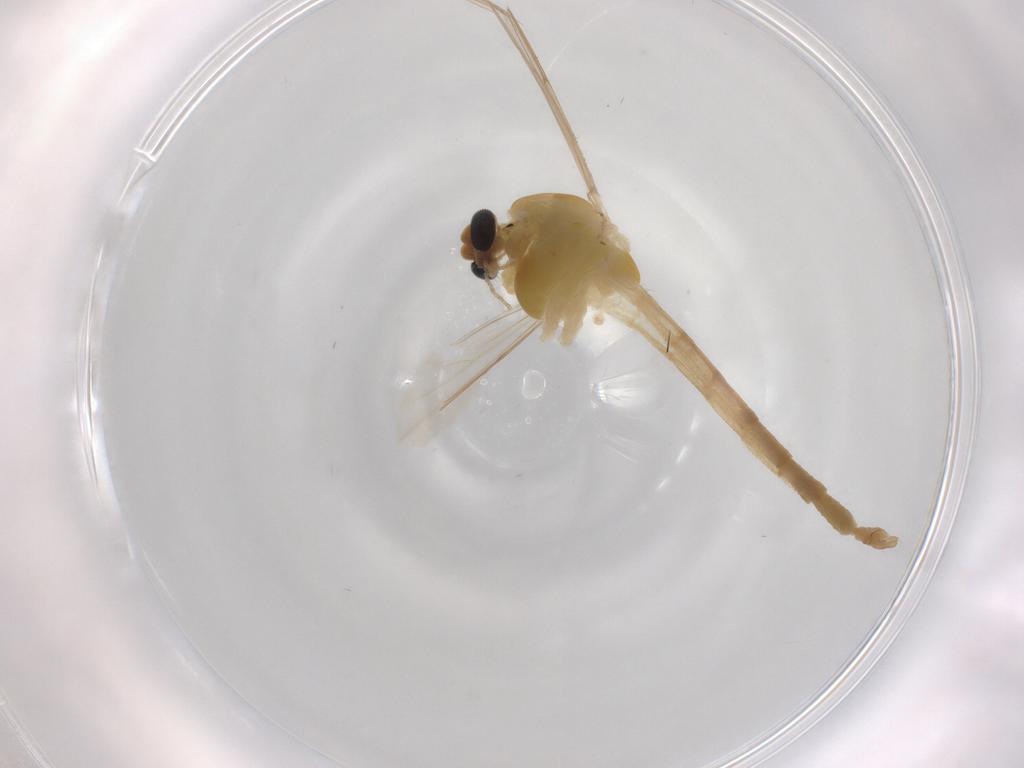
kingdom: Animalia
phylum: Arthropoda
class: Insecta
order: Diptera
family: Chironomidae
